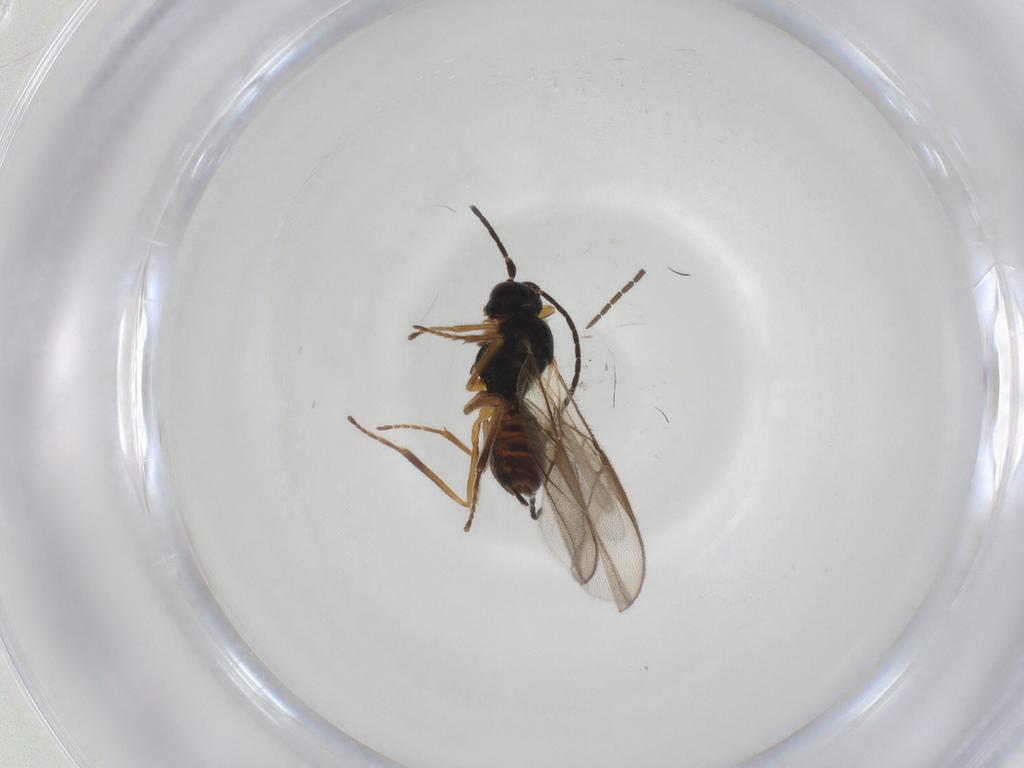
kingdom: Animalia
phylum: Arthropoda
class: Insecta
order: Hymenoptera
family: Braconidae
